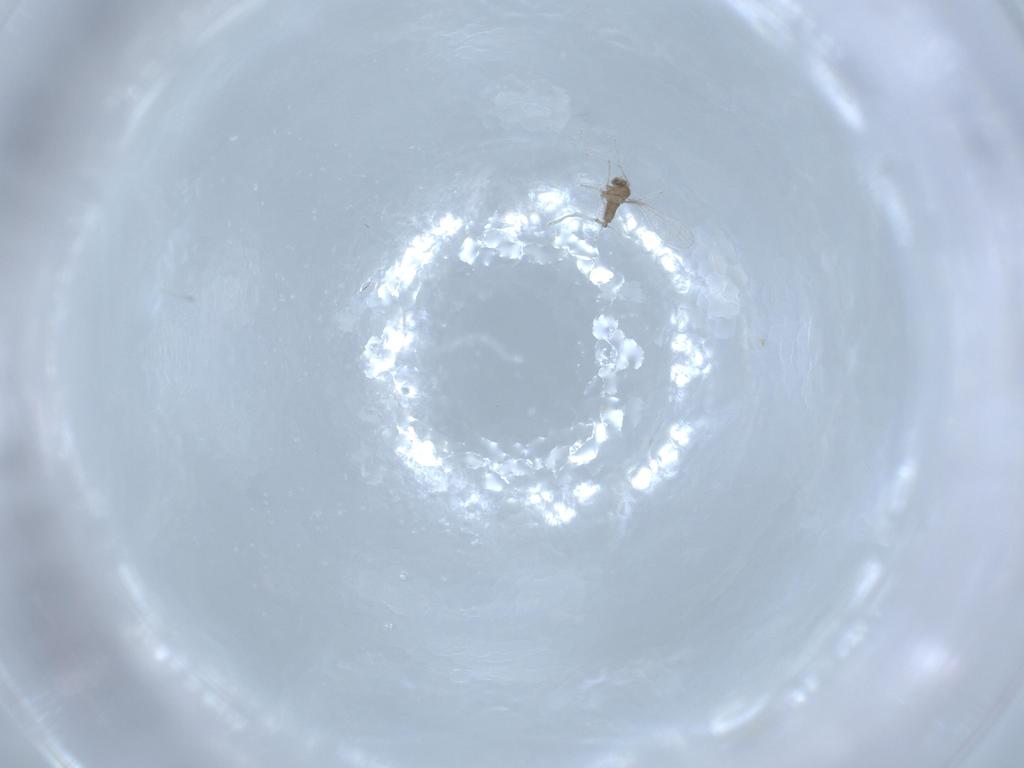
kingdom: Animalia
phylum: Arthropoda
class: Insecta
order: Diptera
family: Cecidomyiidae
